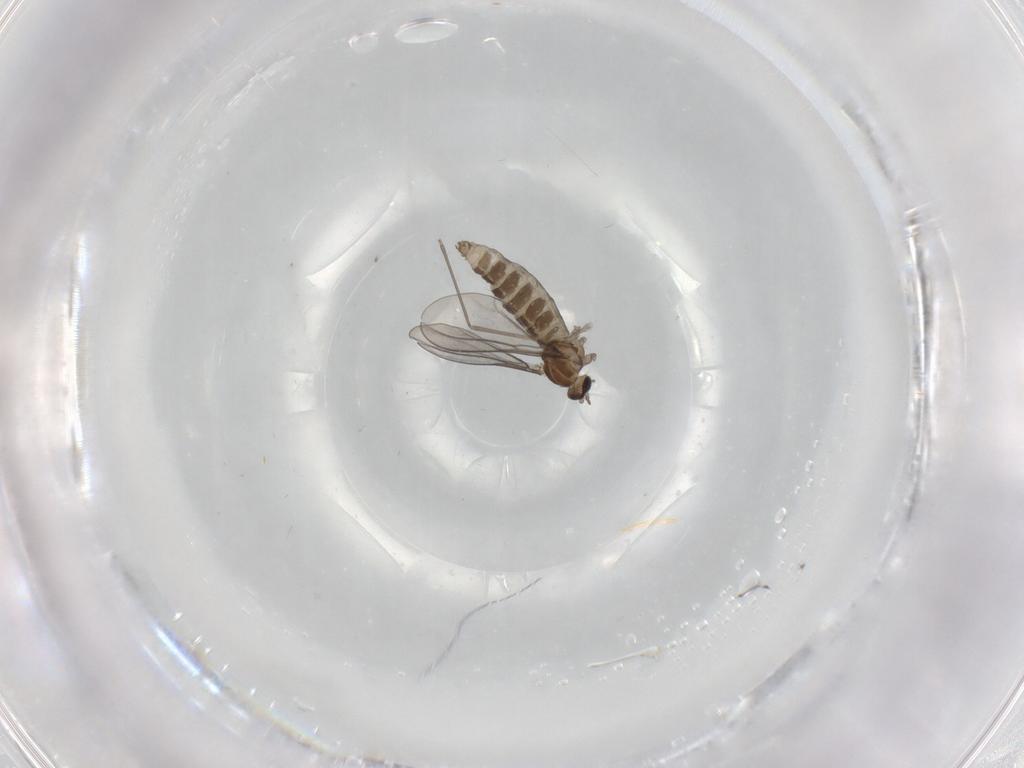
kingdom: Animalia
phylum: Arthropoda
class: Insecta
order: Diptera
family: Cecidomyiidae
